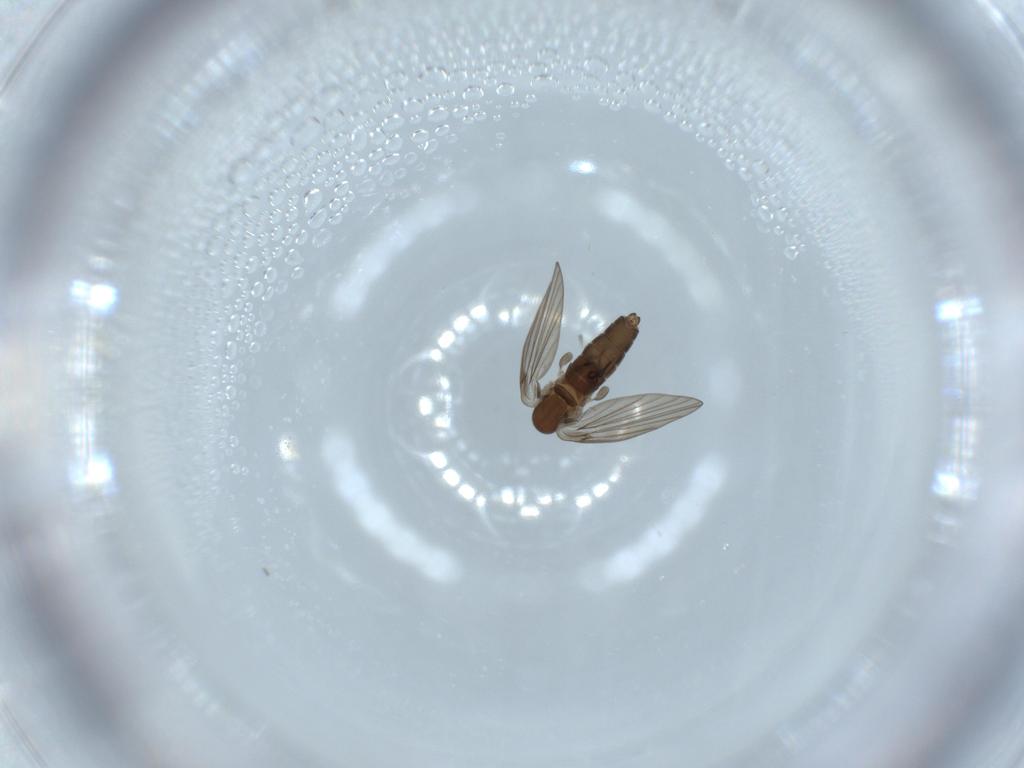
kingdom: Animalia
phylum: Arthropoda
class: Insecta
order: Diptera
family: Psychodidae
